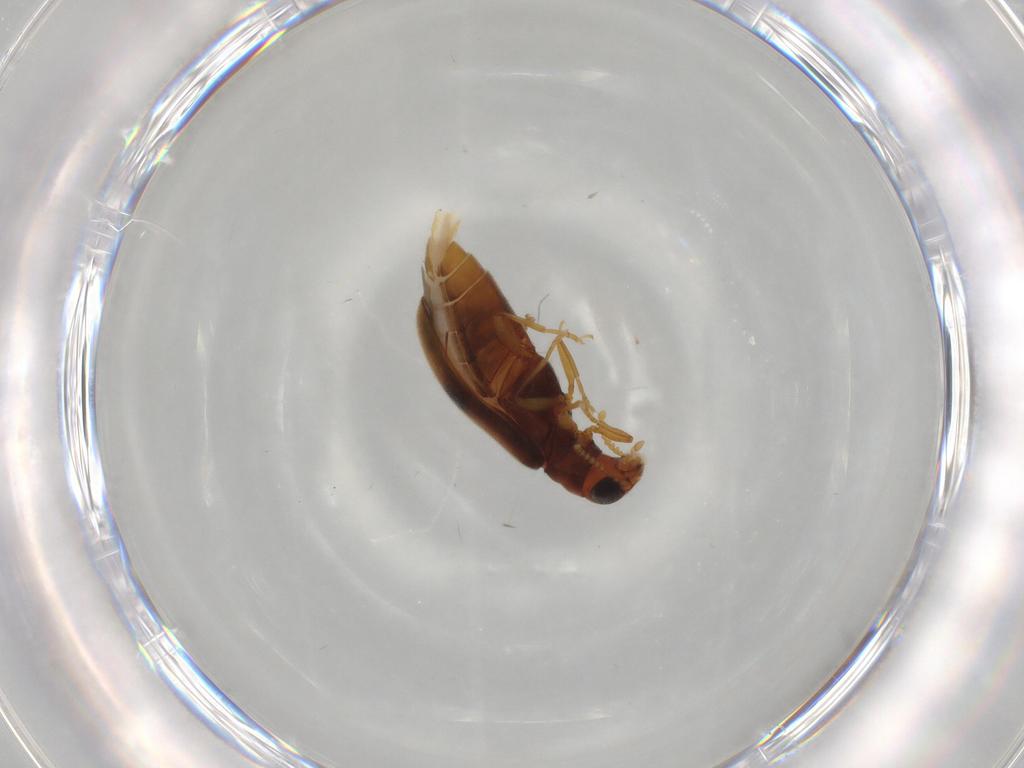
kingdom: Animalia
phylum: Arthropoda
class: Insecta
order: Coleoptera
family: Mycteridae
